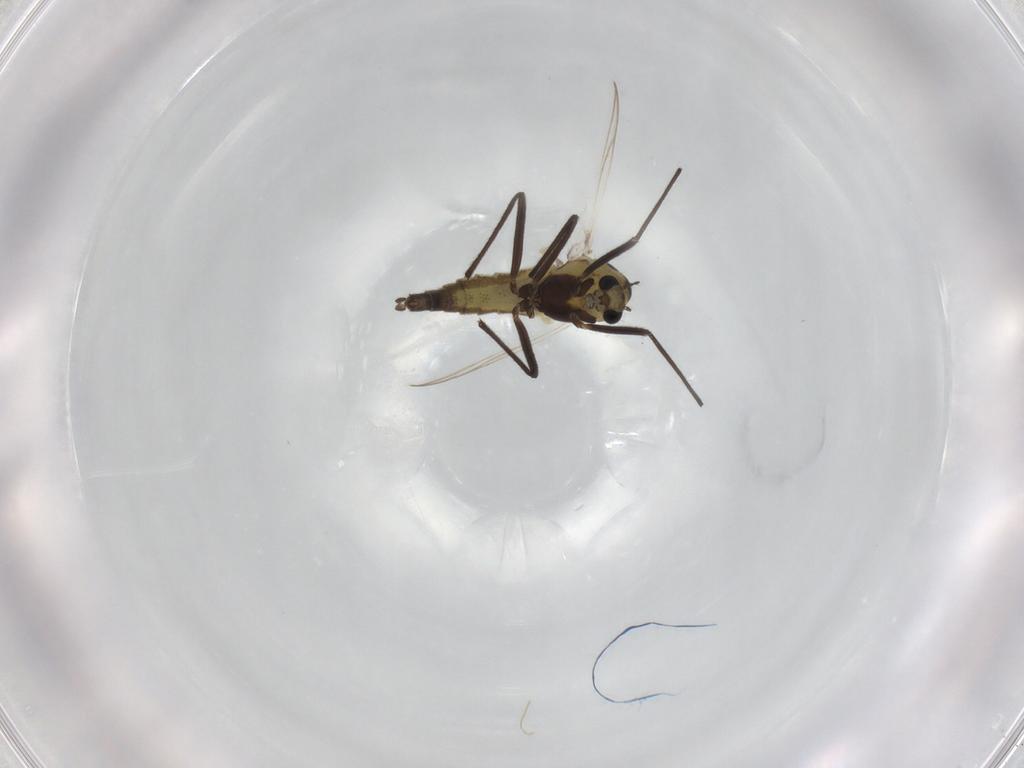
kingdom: Animalia
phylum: Arthropoda
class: Insecta
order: Diptera
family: Chironomidae
